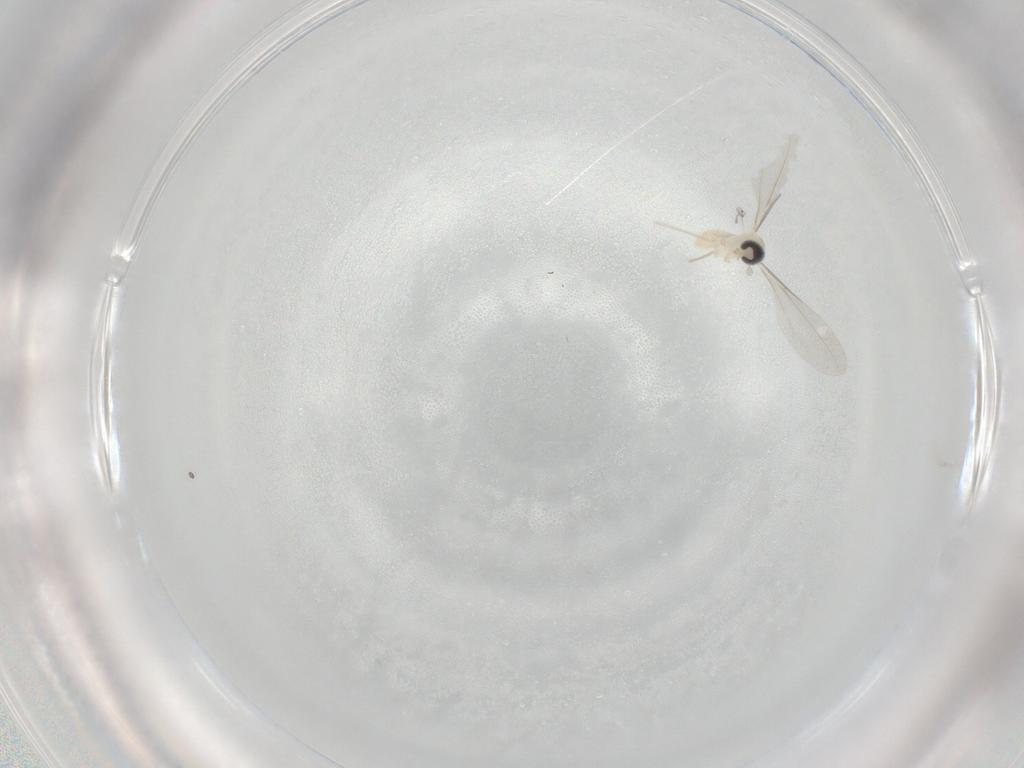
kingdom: Animalia
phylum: Arthropoda
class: Insecta
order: Diptera
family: Cecidomyiidae
